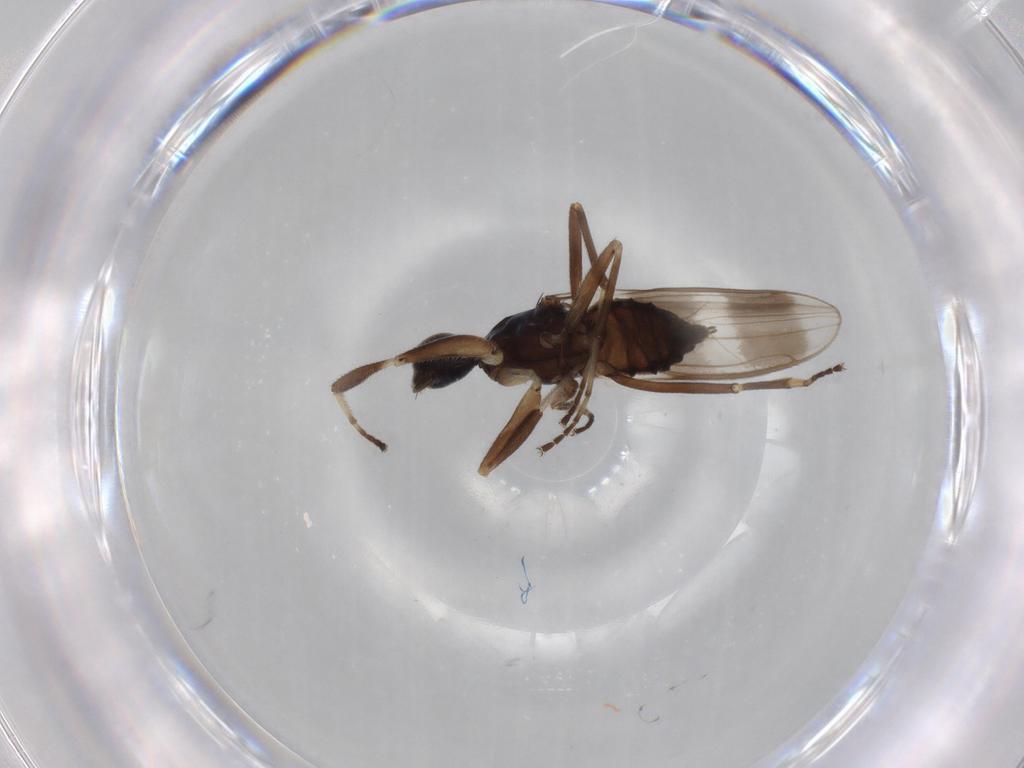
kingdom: Animalia
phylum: Arthropoda
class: Insecta
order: Diptera
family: Hybotidae
